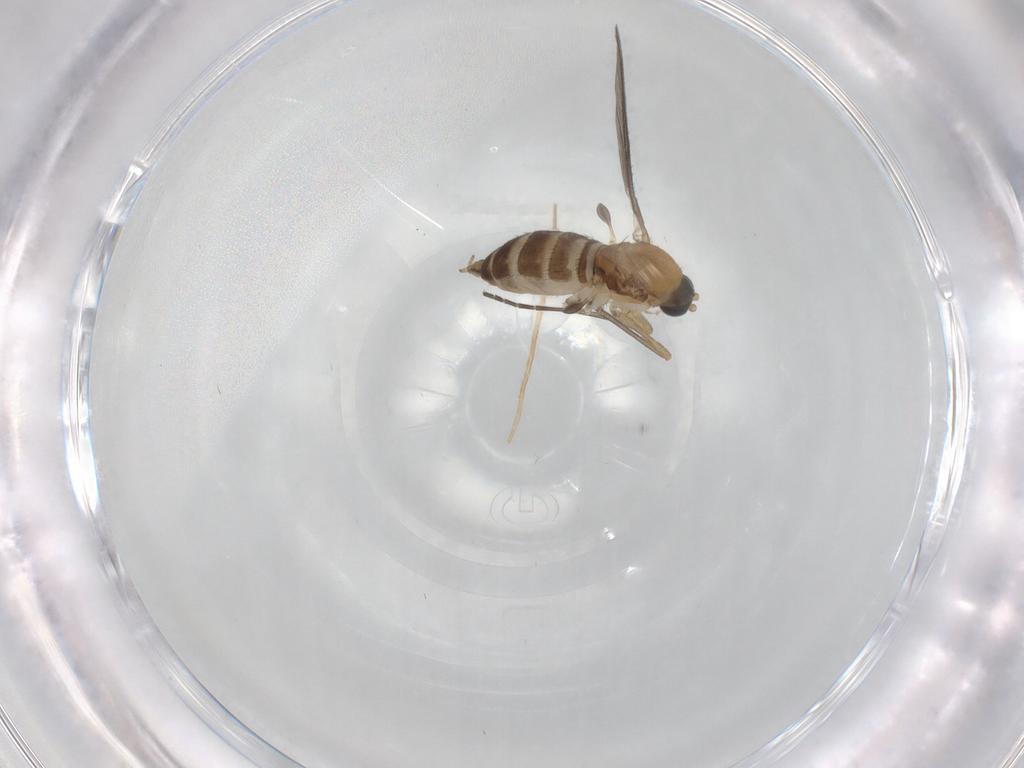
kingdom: Animalia
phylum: Arthropoda
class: Insecta
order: Diptera
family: Sciaridae
